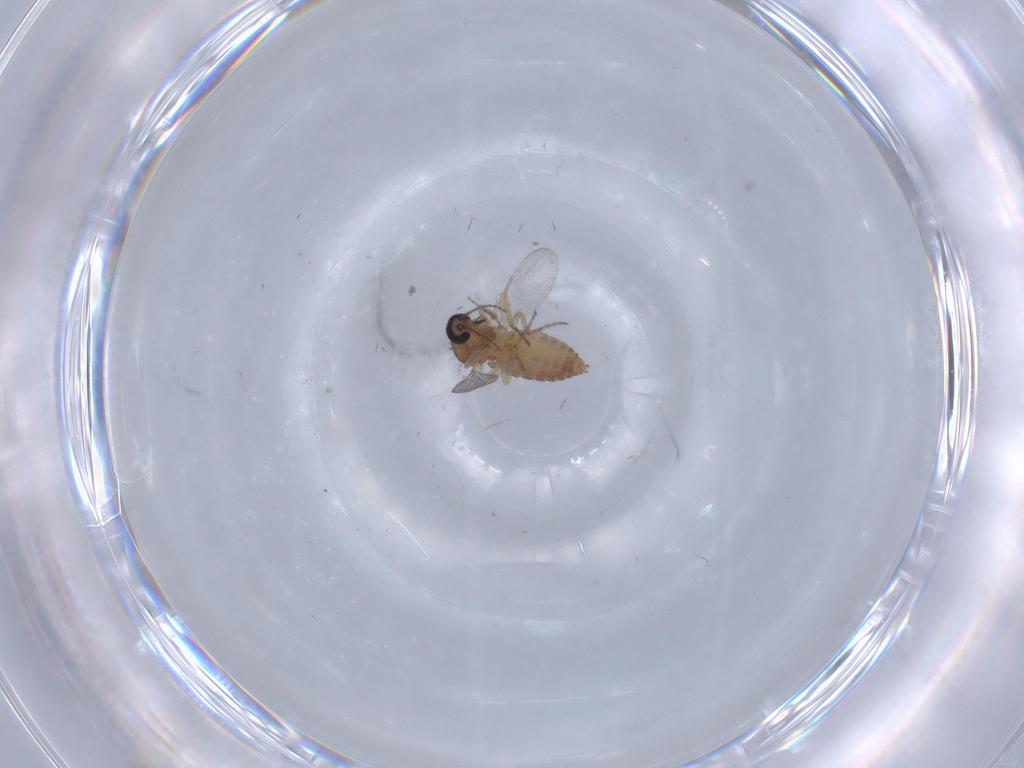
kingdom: Animalia
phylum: Arthropoda
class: Insecta
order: Diptera
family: Ceratopogonidae
